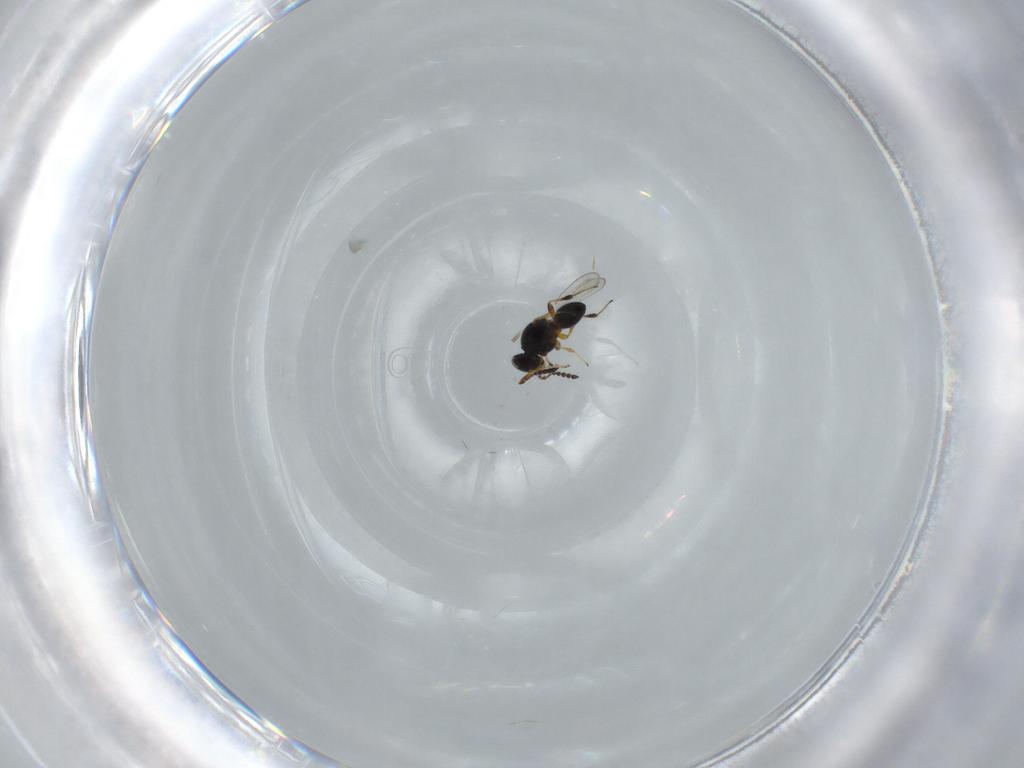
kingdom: Animalia
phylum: Arthropoda
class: Insecta
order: Hymenoptera
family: Platygastridae
